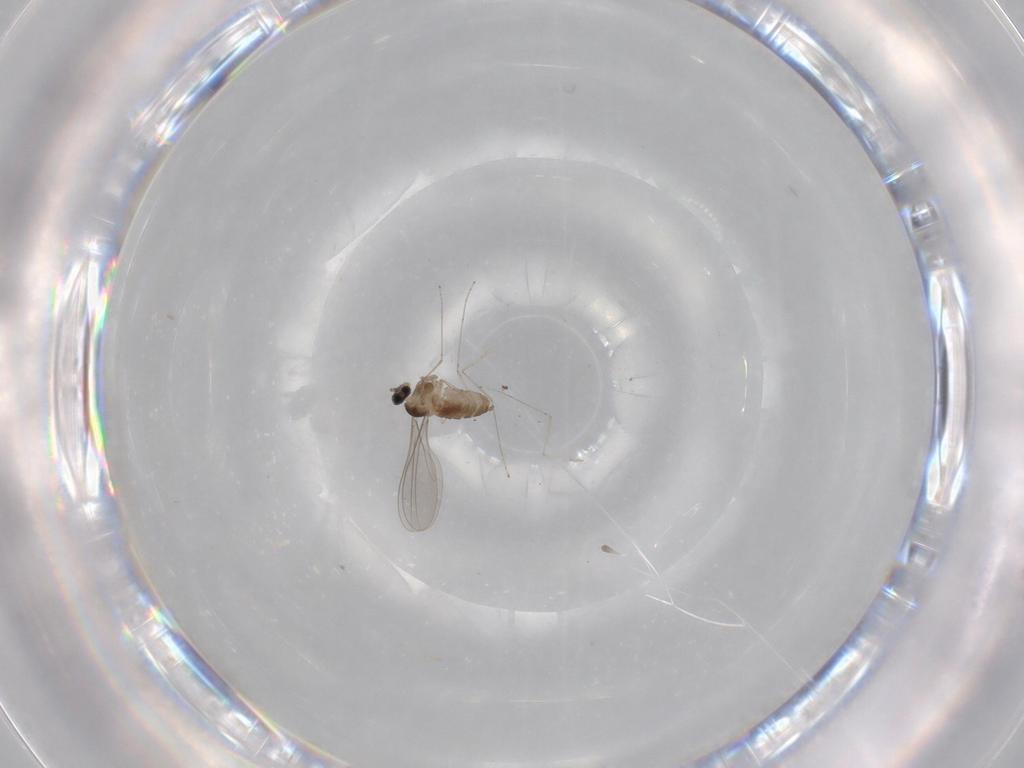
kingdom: Animalia
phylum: Arthropoda
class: Insecta
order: Diptera
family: Cecidomyiidae
